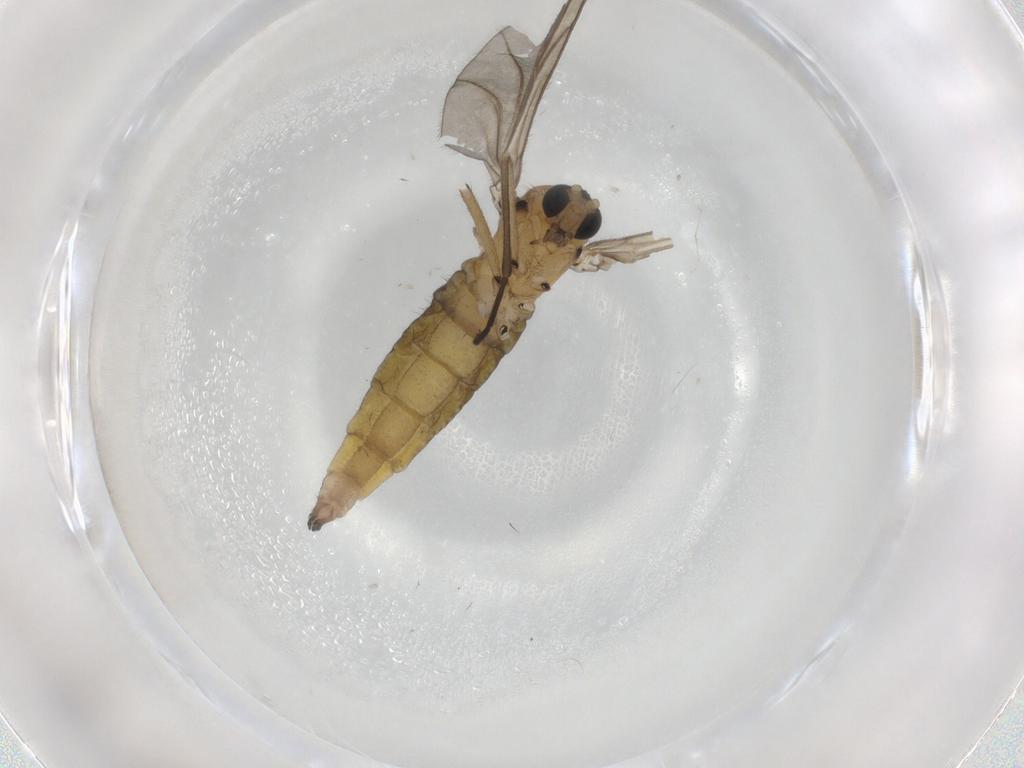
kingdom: Animalia
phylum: Arthropoda
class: Insecta
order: Diptera
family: Sciaridae
